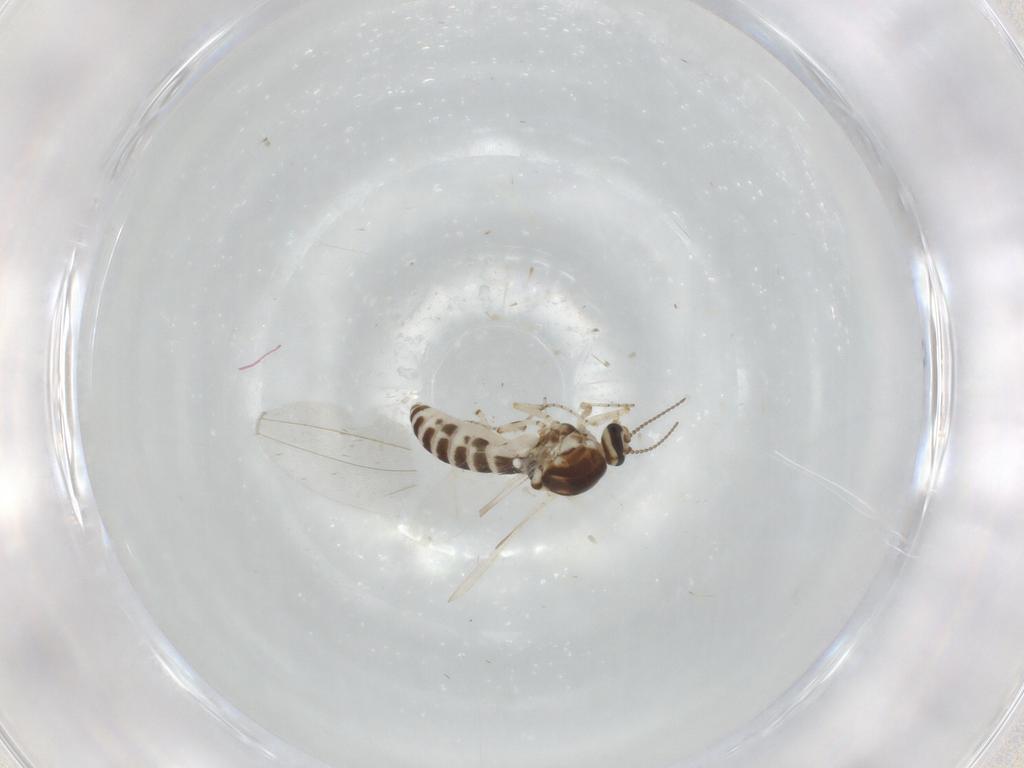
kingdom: Animalia
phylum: Arthropoda
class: Insecta
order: Diptera
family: Ceratopogonidae
